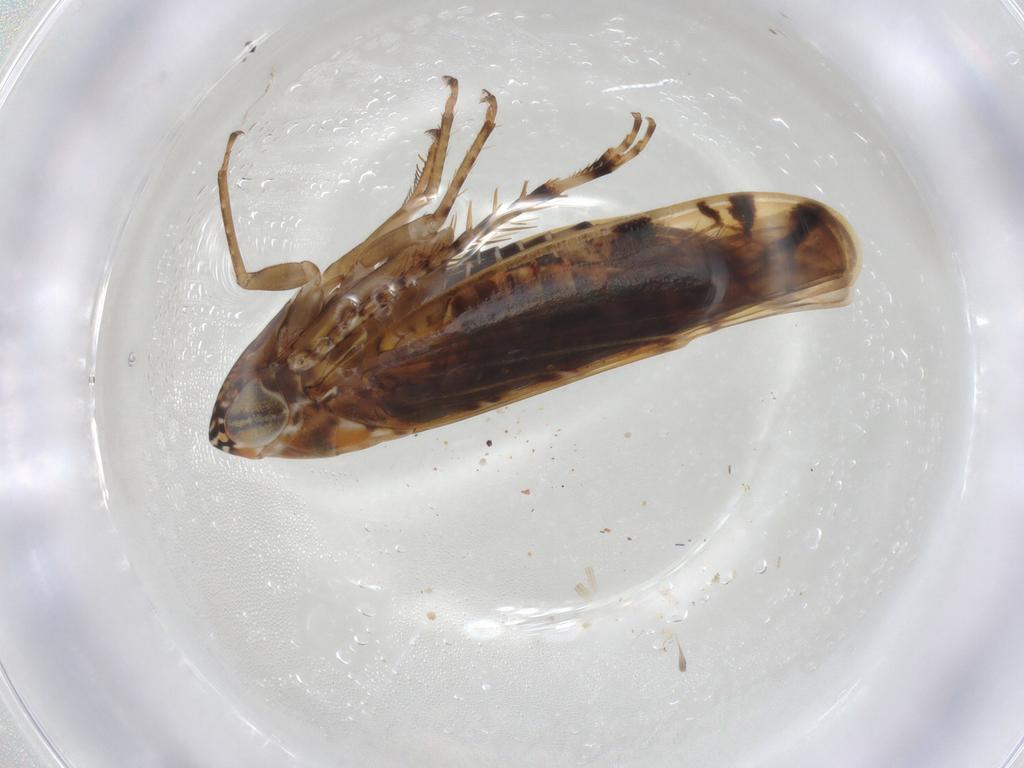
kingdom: Animalia
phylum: Arthropoda
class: Insecta
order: Hemiptera
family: Cicadellidae
